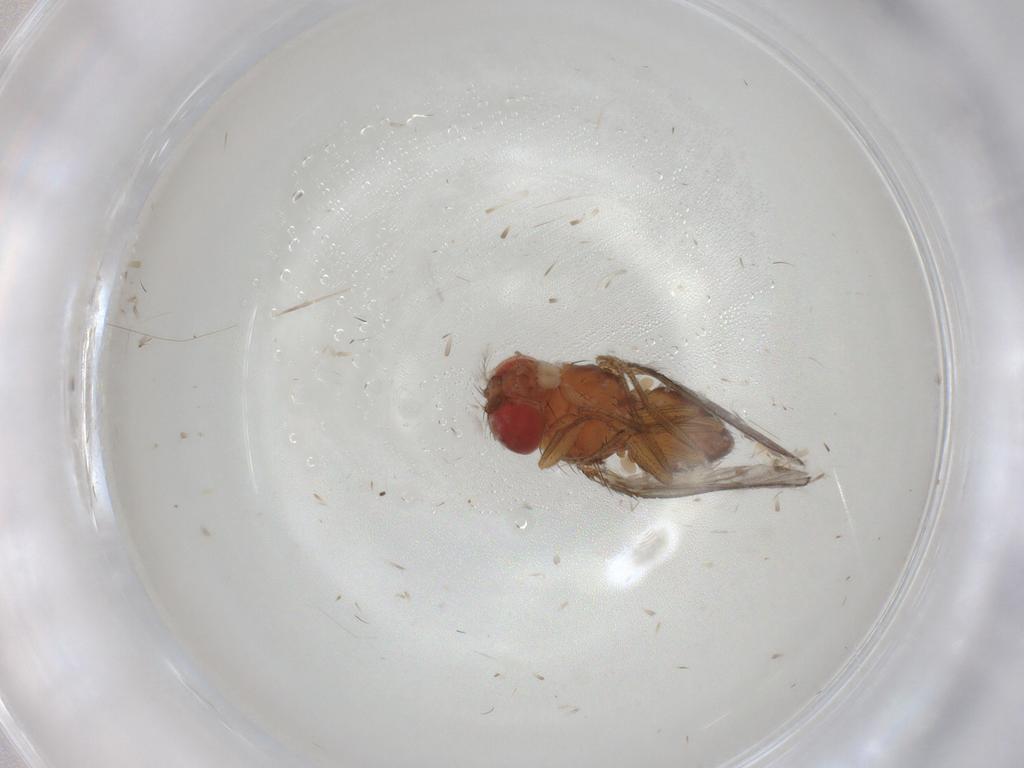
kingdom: Animalia
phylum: Arthropoda
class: Insecta
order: Diptera
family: Drosophilidae
